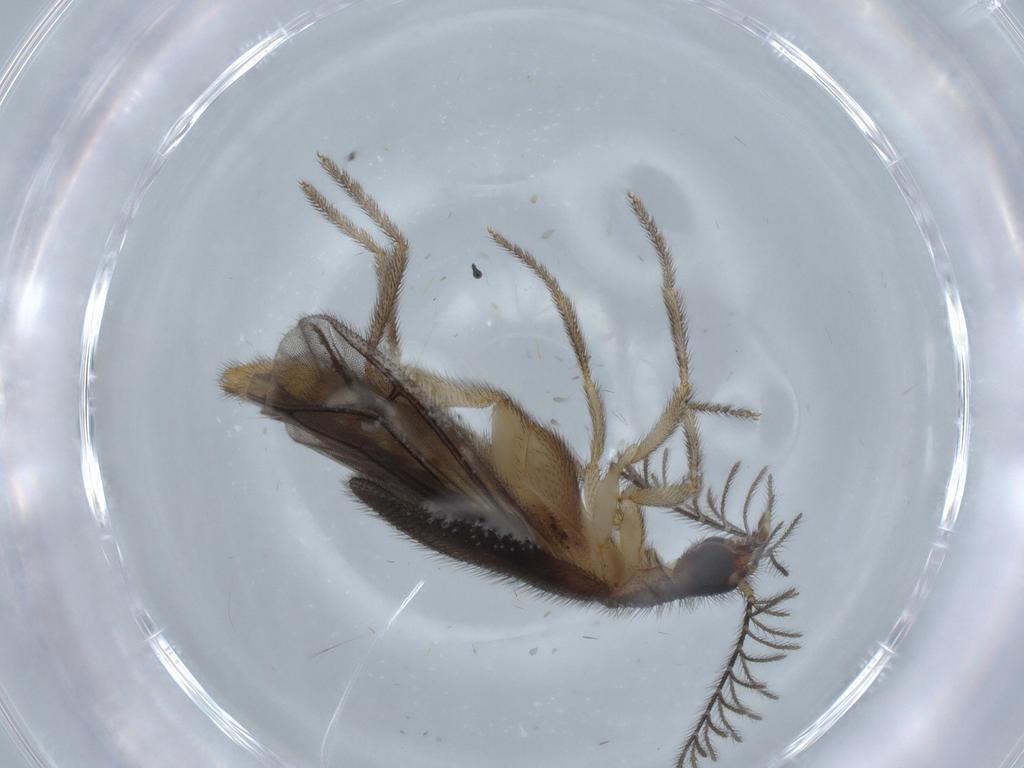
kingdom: Animalia
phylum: Arthropoda
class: Insecta
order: Coleoptera
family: Latridiidae
